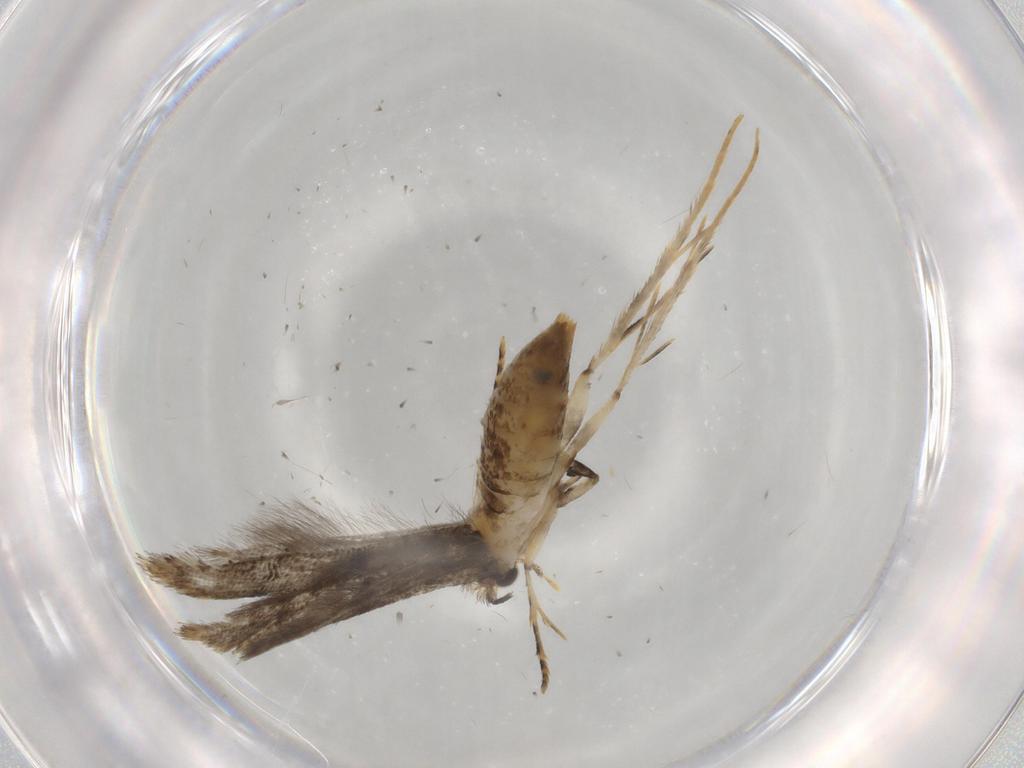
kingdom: Animalia
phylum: Arthropoda
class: Insecta
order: Lepidoptera
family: Tineidae
